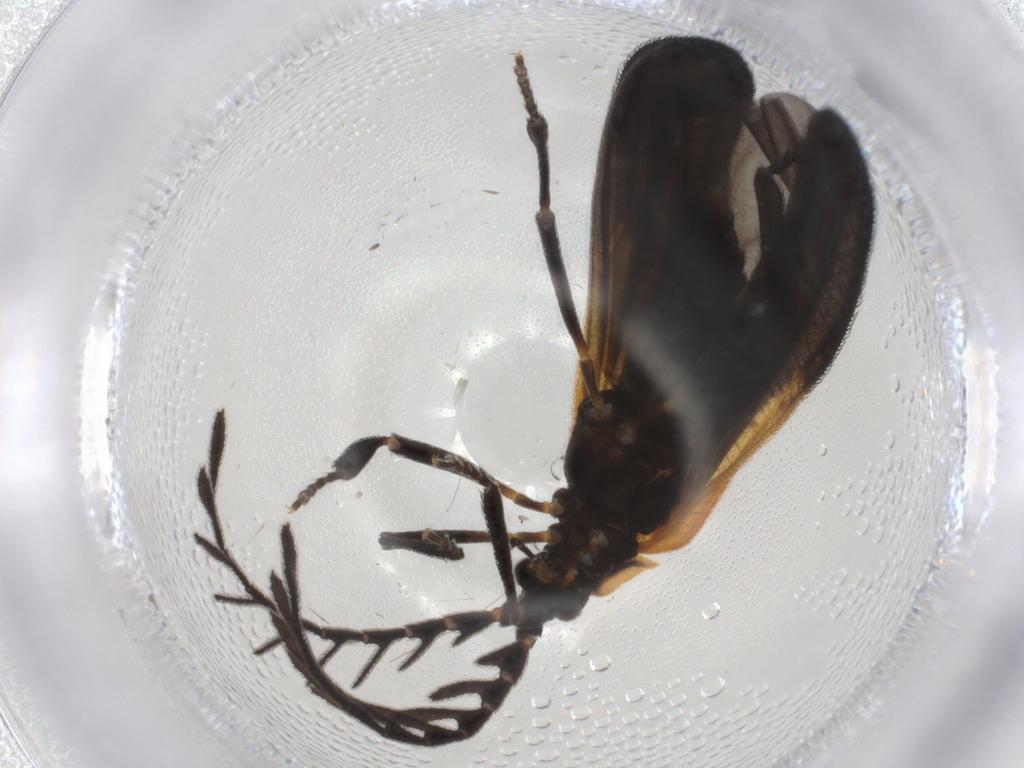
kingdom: Animalia
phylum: Arthropoda
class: Insecta
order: Coleoptera
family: Lycidae
